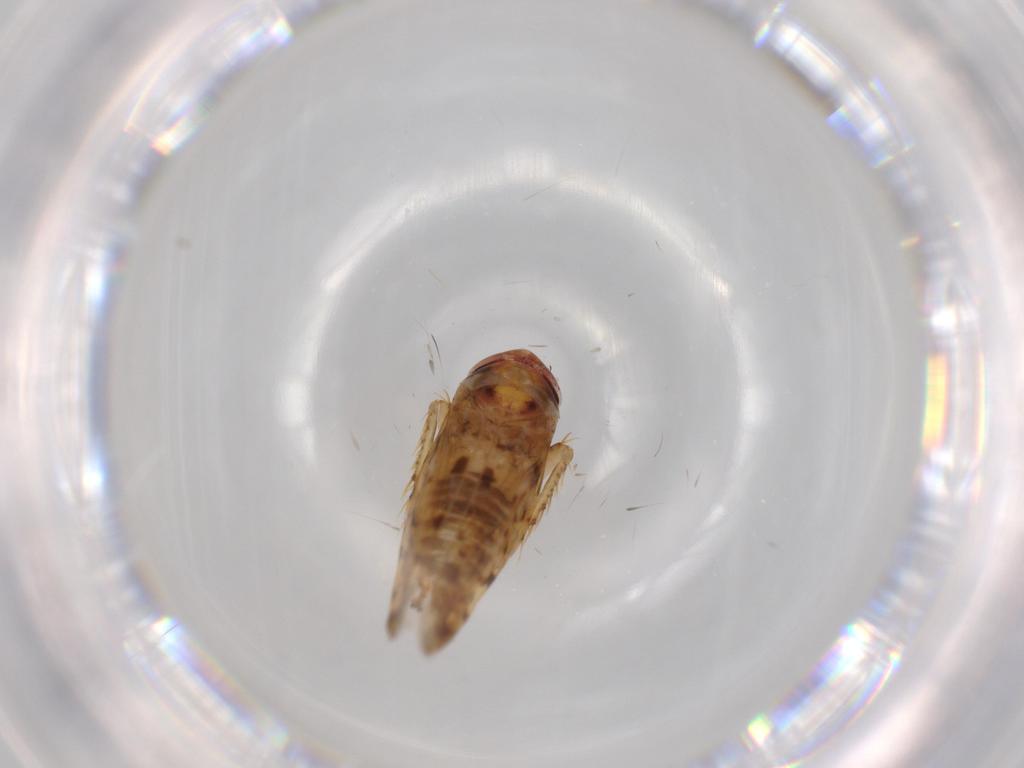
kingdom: Animalia
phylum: Arthropoda
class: Insecta
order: Hemiptera
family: Cicadellidae
